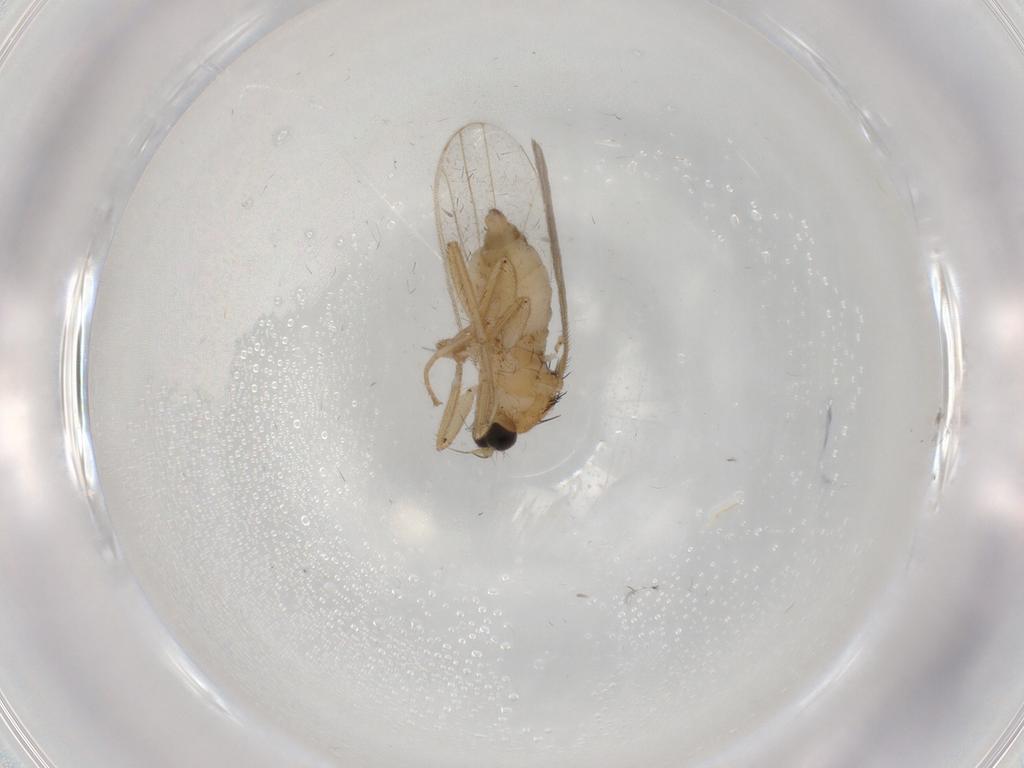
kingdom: Animalia
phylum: Arthropoda
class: Insecta
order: Diptera
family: Hybotidae
